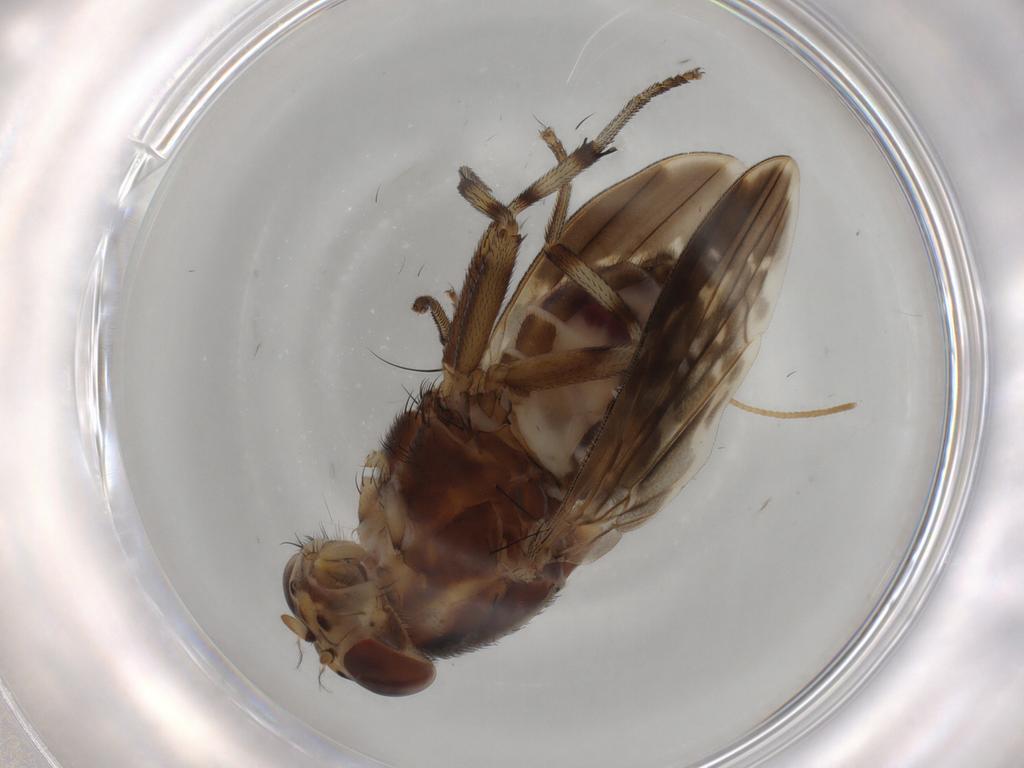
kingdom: Animalia
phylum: Arthropoda
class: Insecta
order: Diptera
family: Lauxaniidae
